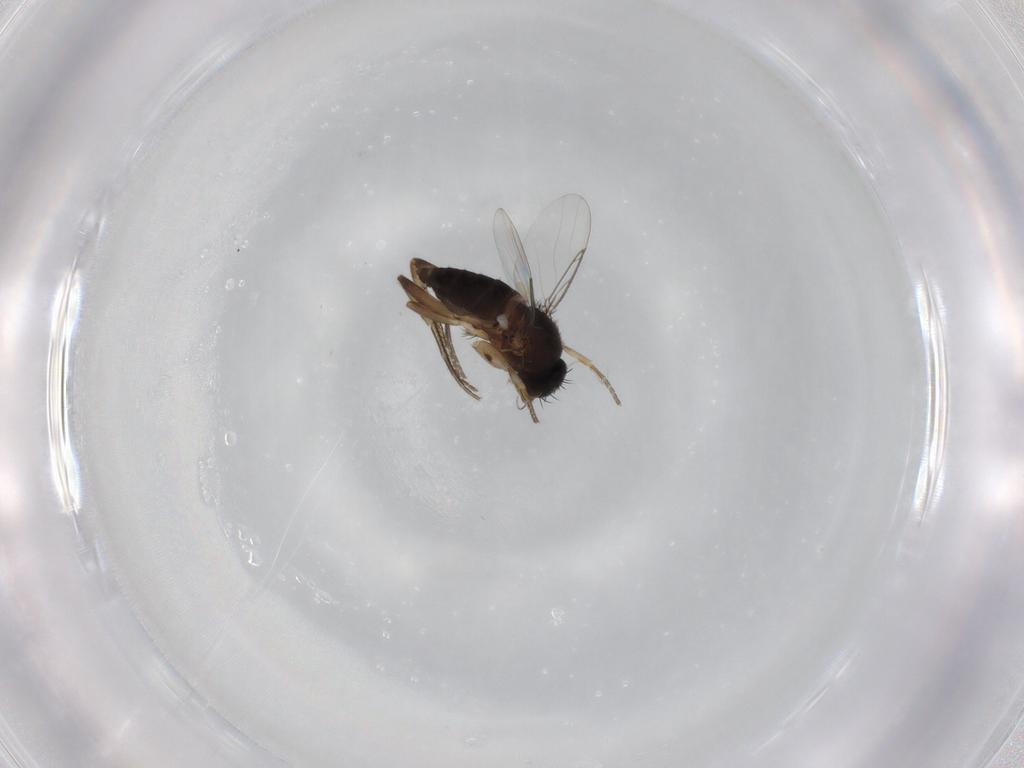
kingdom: Animalia
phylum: Arthropoda
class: Insecta
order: Diptera
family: Phoridae
